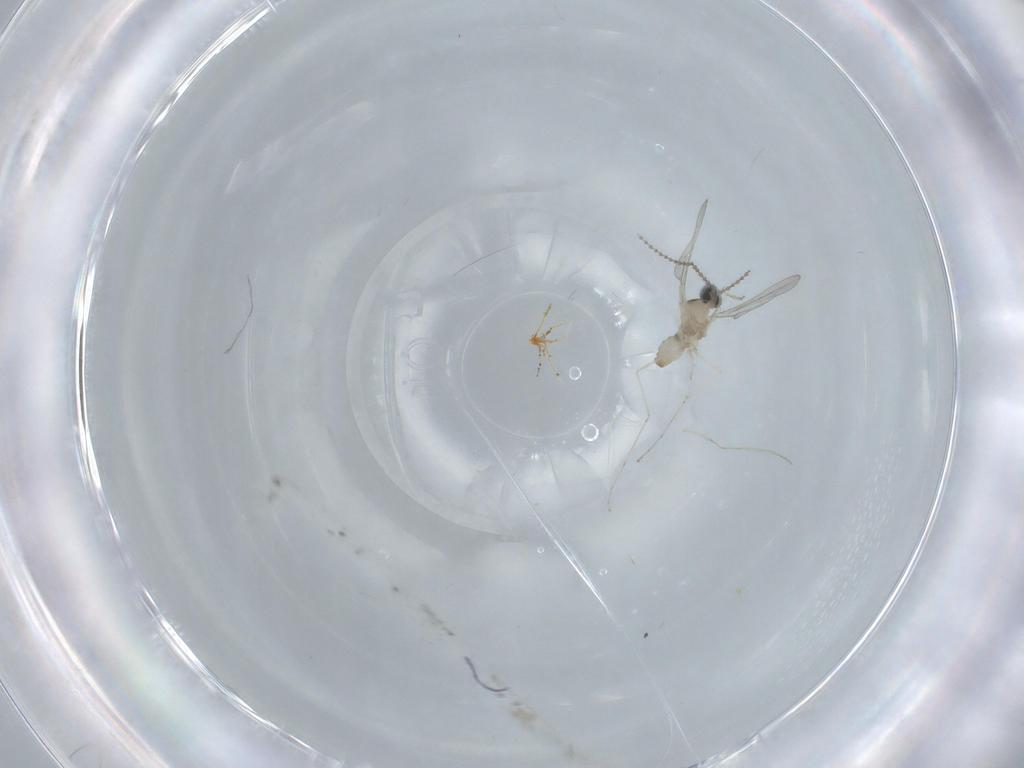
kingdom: Animalia
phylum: Arthropoda
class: Insecta
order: Diptera
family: Cecidomyiidae
